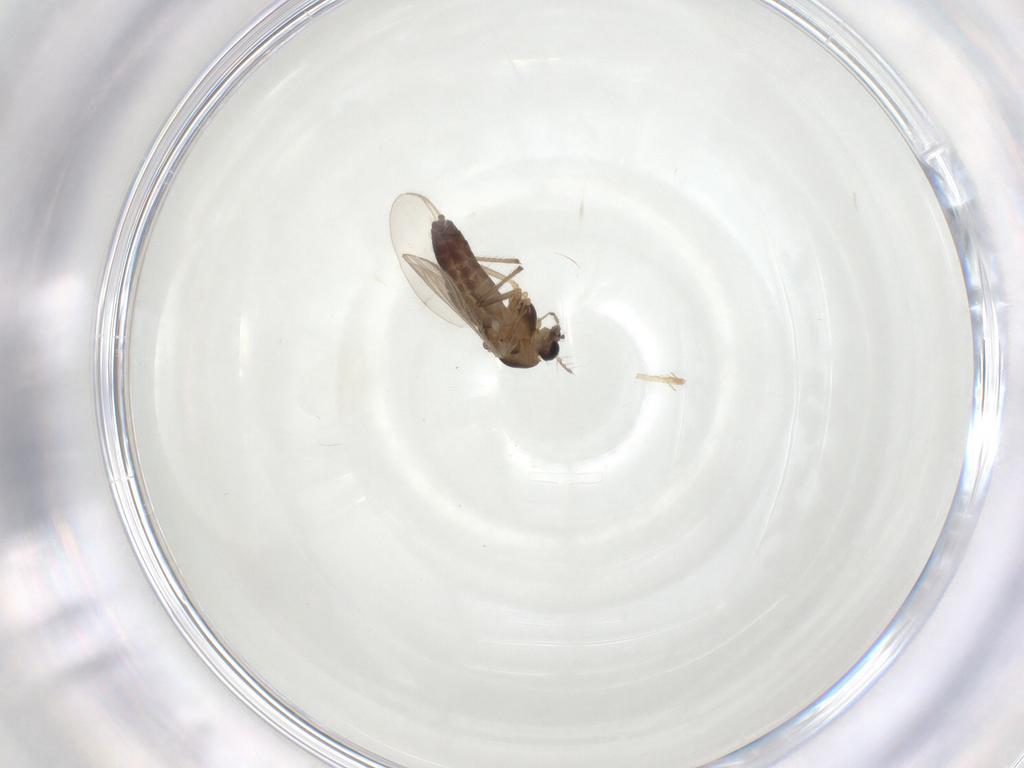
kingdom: Animalia
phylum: Arthropoda
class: Insecta
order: Diptera
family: Chironomidae
